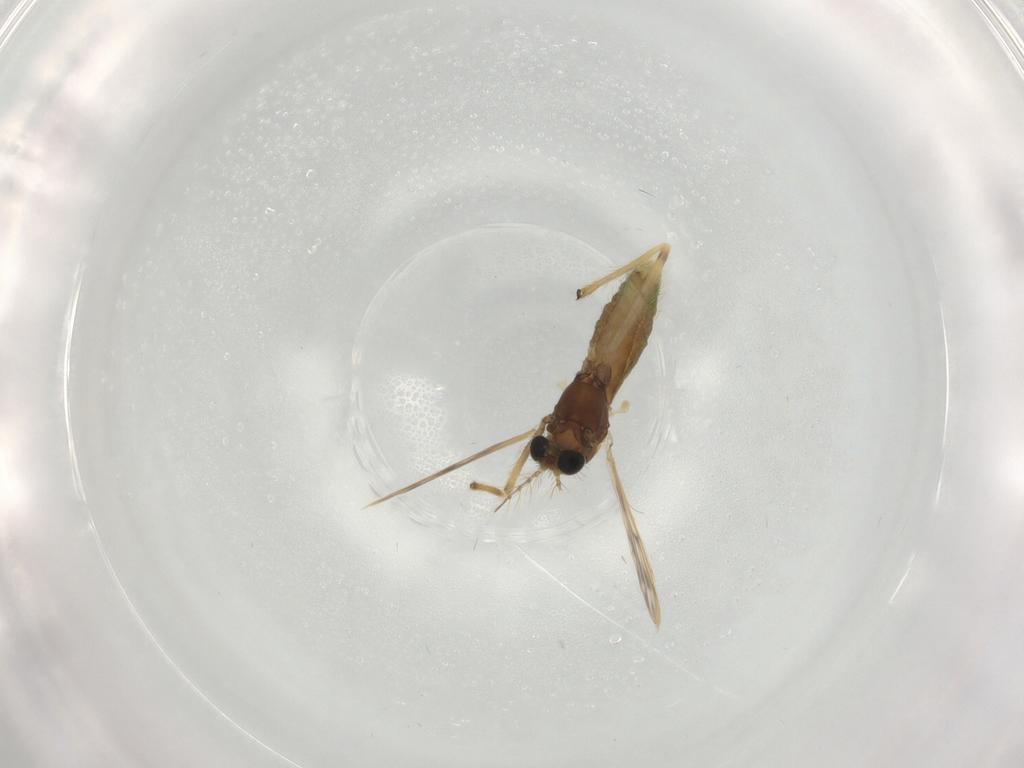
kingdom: Animalia
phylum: Arthropoda
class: Insecta
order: Diptera
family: Chironomidae
